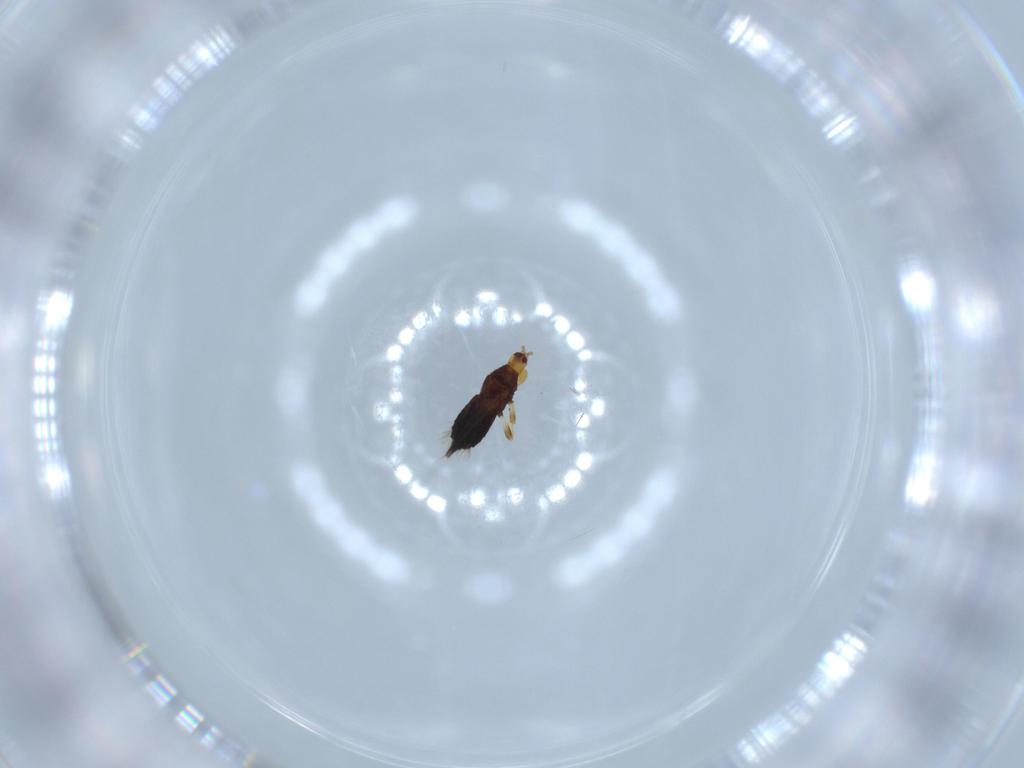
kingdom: Animalia
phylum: Arthropoda
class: Insecta
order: Thysanoptera
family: Phlaeothripidae
